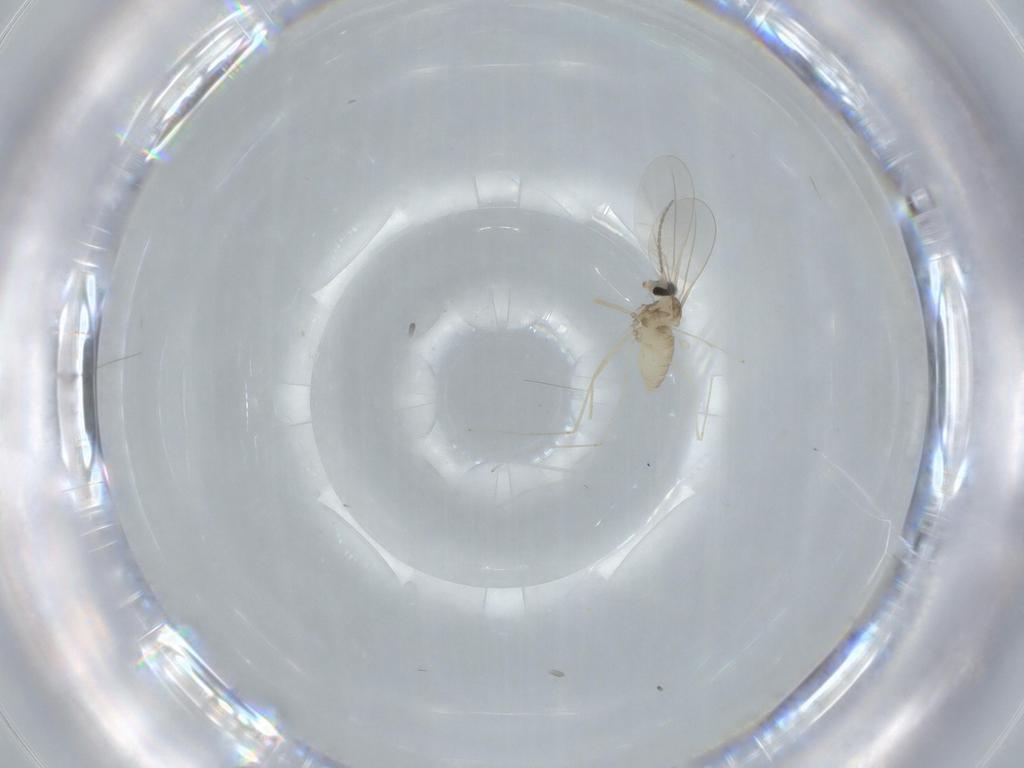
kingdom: Animalia
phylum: Arthropoda
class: Insecta
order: Diptera
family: Cecidomyiidae
